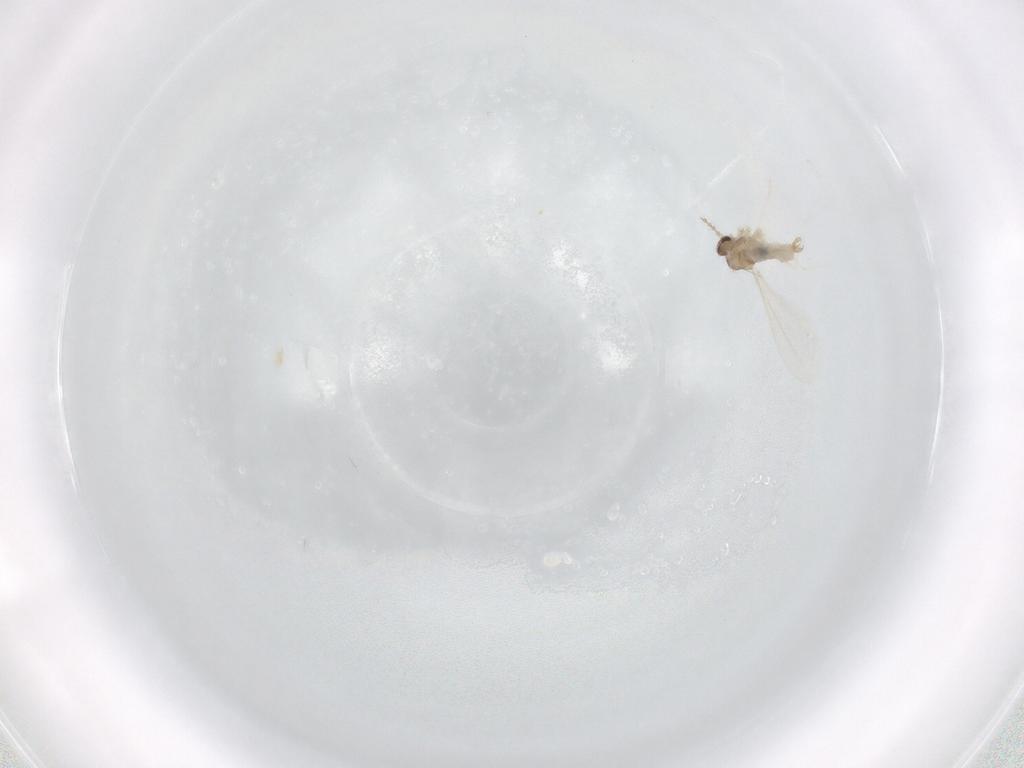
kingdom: Animalia
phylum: Arthropoda
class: Insecta
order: Diptera
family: Cecidomyiidae
